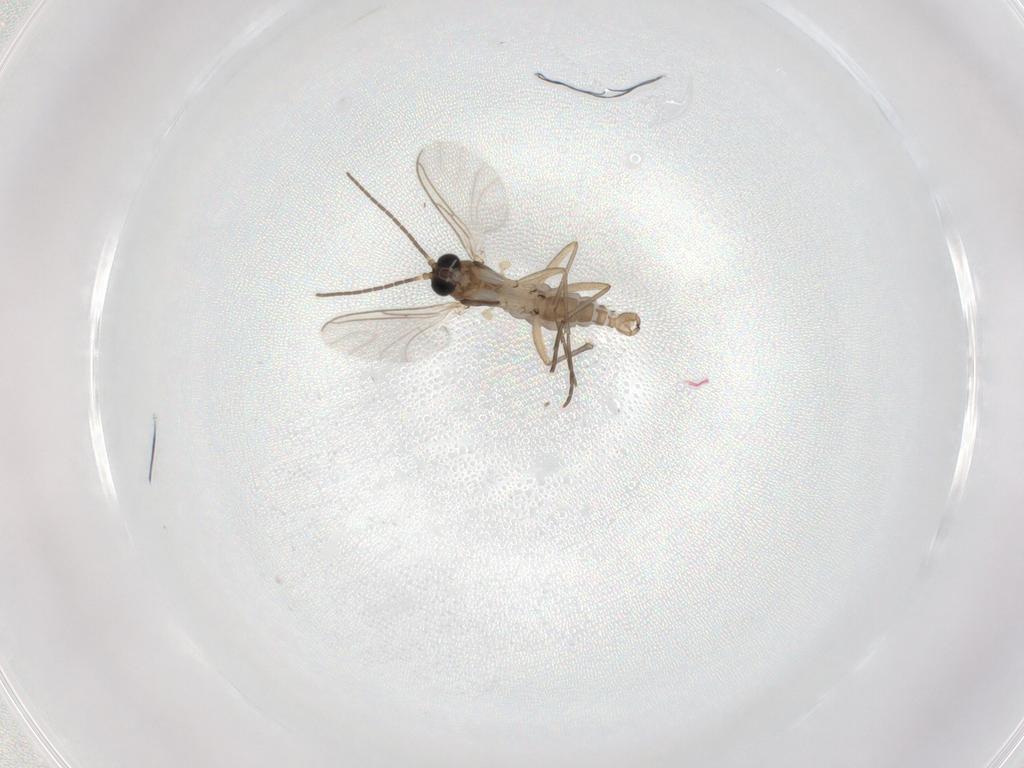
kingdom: Animalia
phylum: Arthropoda
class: Insecta
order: Diptera
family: Sciaridae
